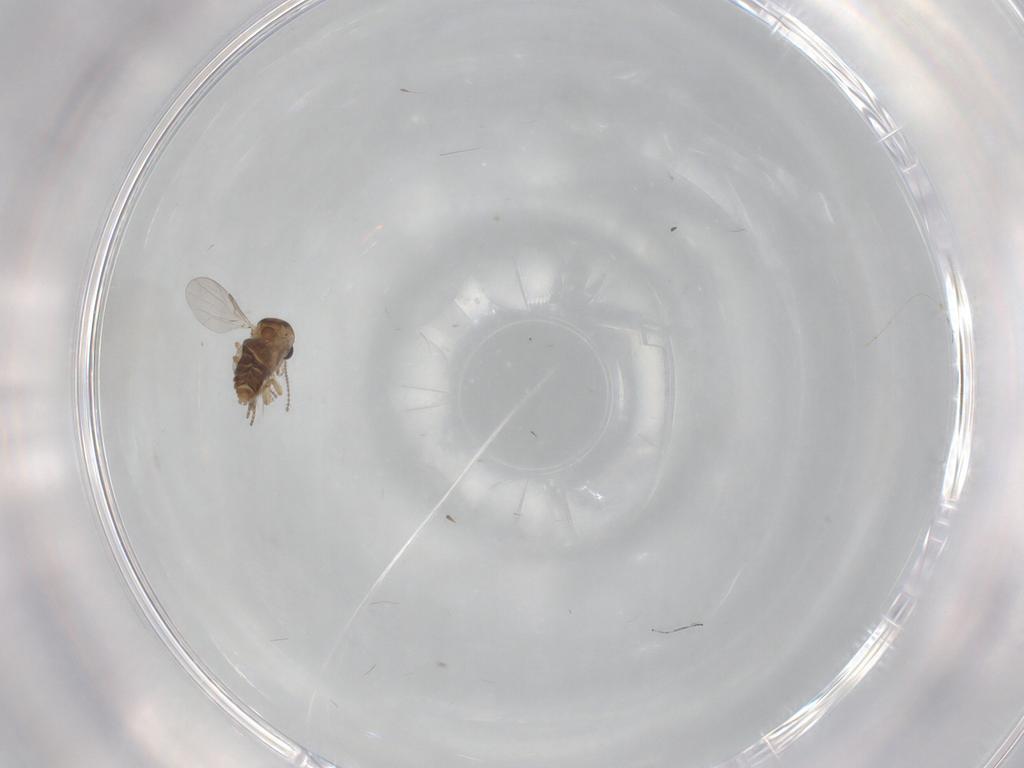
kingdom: Animalia
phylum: Arthropoda
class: Insecta
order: Diptera
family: Ceratopogonidae
